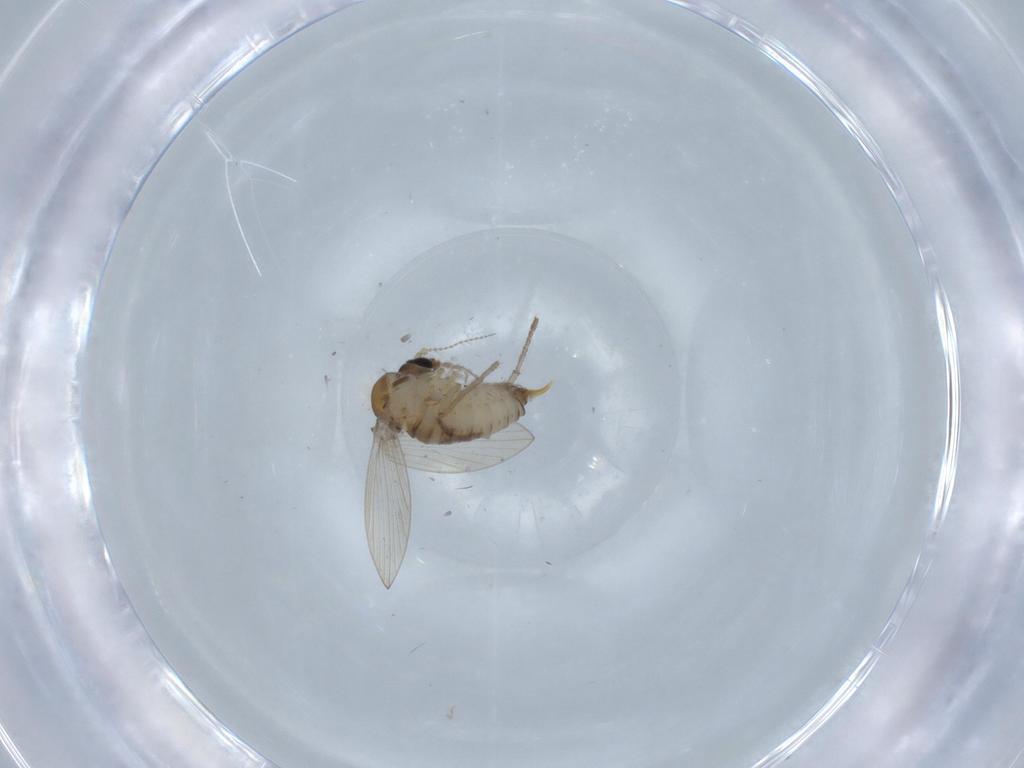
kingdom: Animalia
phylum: Arthropoda
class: Insecta
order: Diptera
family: Psychodidae
